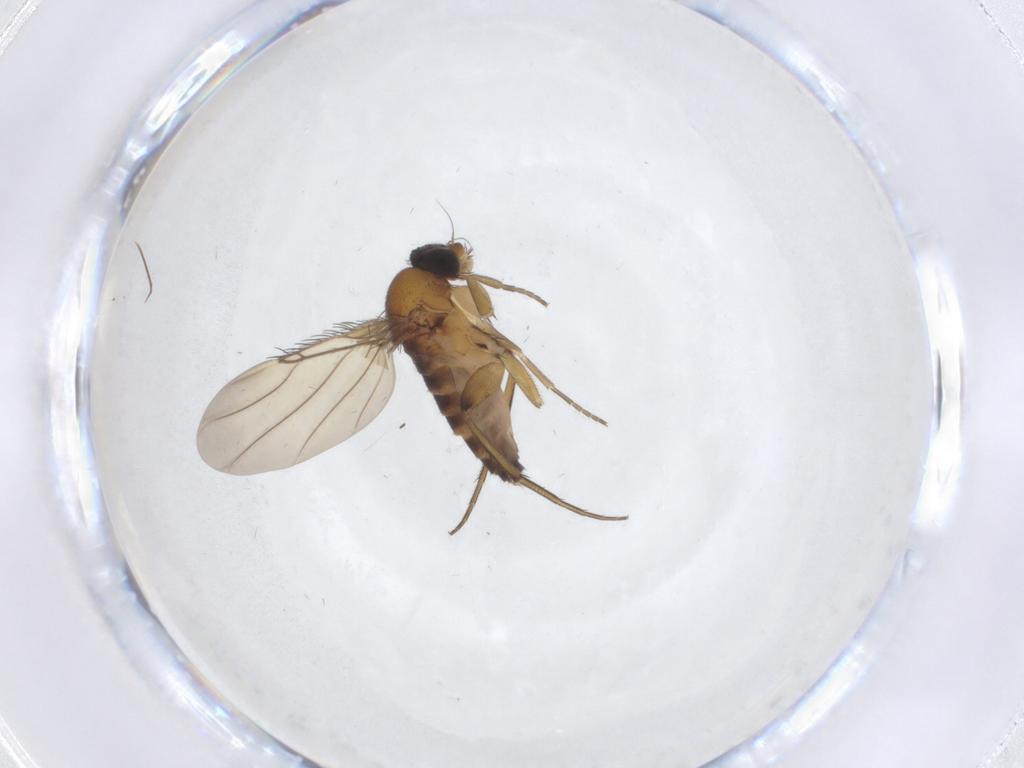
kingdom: Animalia
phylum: Arthropoda
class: Insecta
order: Diptera
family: Phoridae
